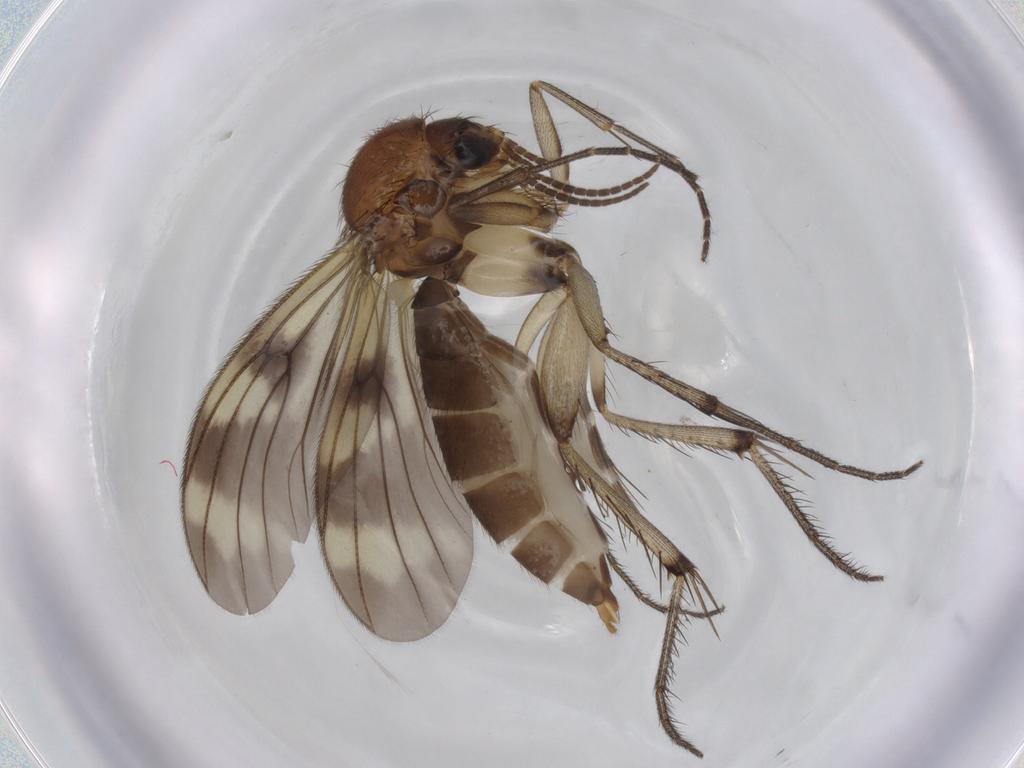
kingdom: Animalia
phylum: Arthropoda
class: Insecta
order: Diptera
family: Mycetophilidae
